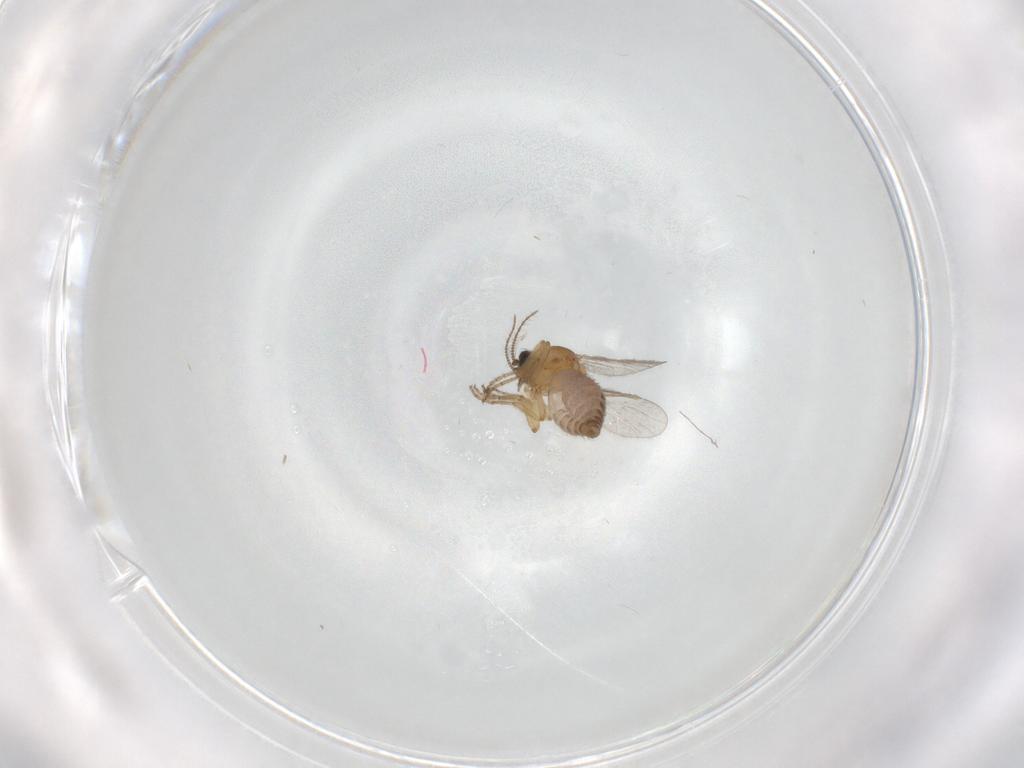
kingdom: Animalia
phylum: Arthropoda
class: Insecta
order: Diptera
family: Ceratopogonidae
